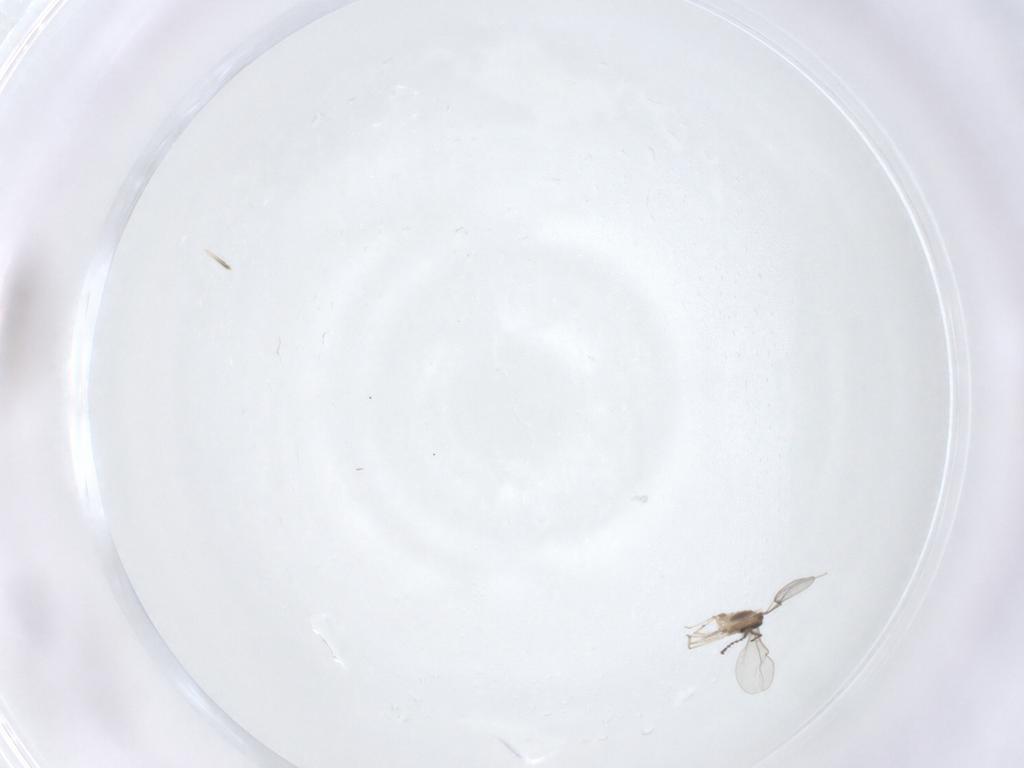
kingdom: Animalia
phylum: Arthropoda
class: Insecta
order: Diptera
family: Cecidomyiidae
